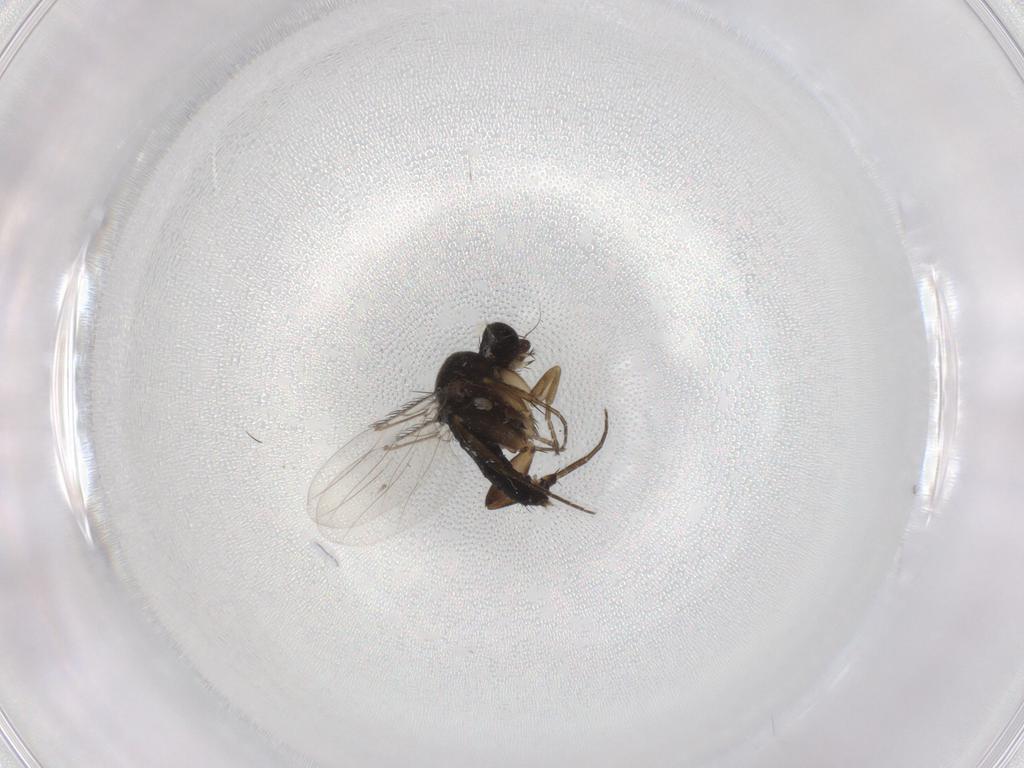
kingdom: Animalia
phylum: Arthropoda
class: Insecta
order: Diptera
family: Phoridae
